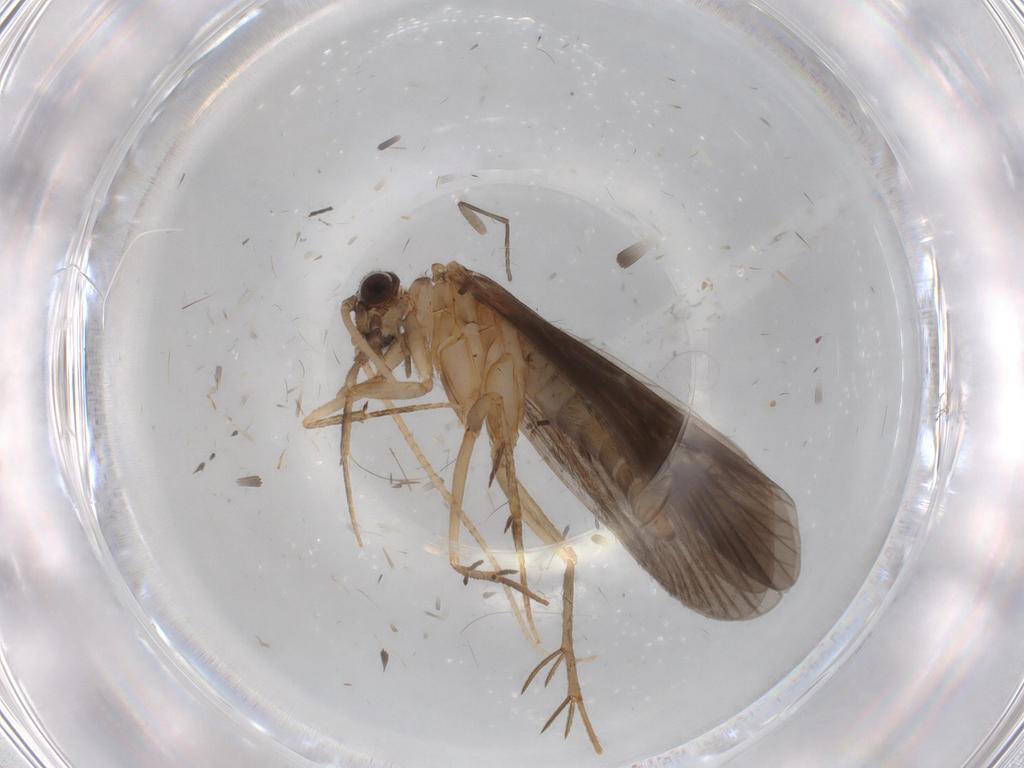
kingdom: Animalia
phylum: Arthropoda
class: Insecta
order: Trichoptera
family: Philopotamidae
